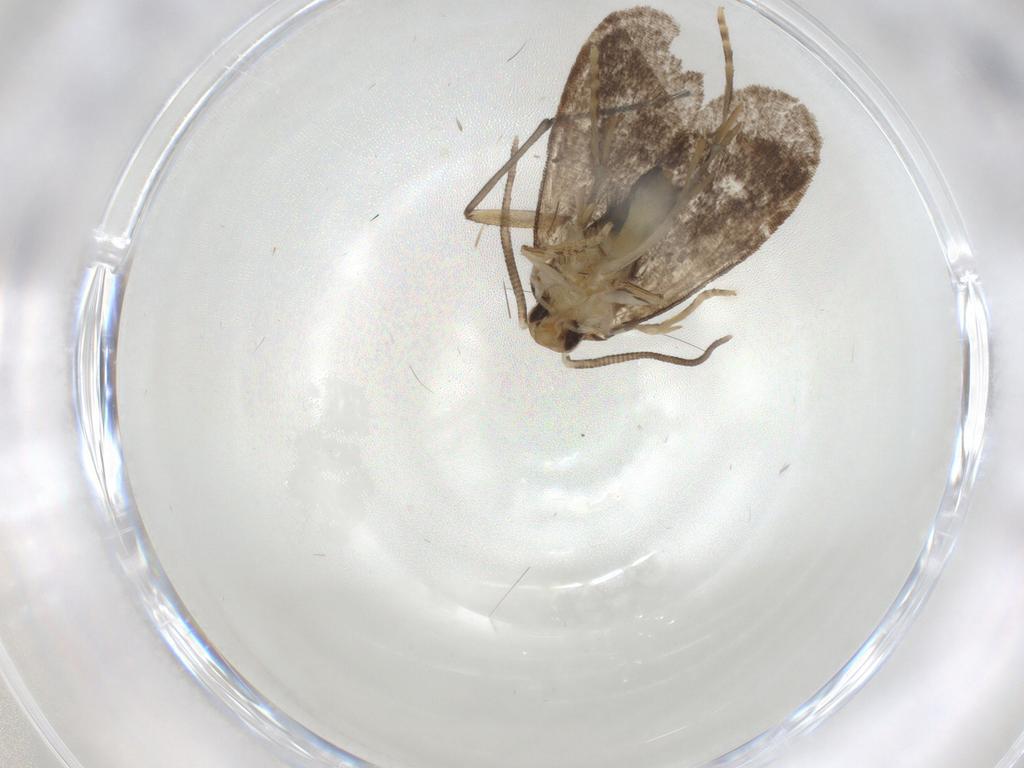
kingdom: Animalia
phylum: Arthropoda
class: Insecta
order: Lepidoptera
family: Dryadaulidae
